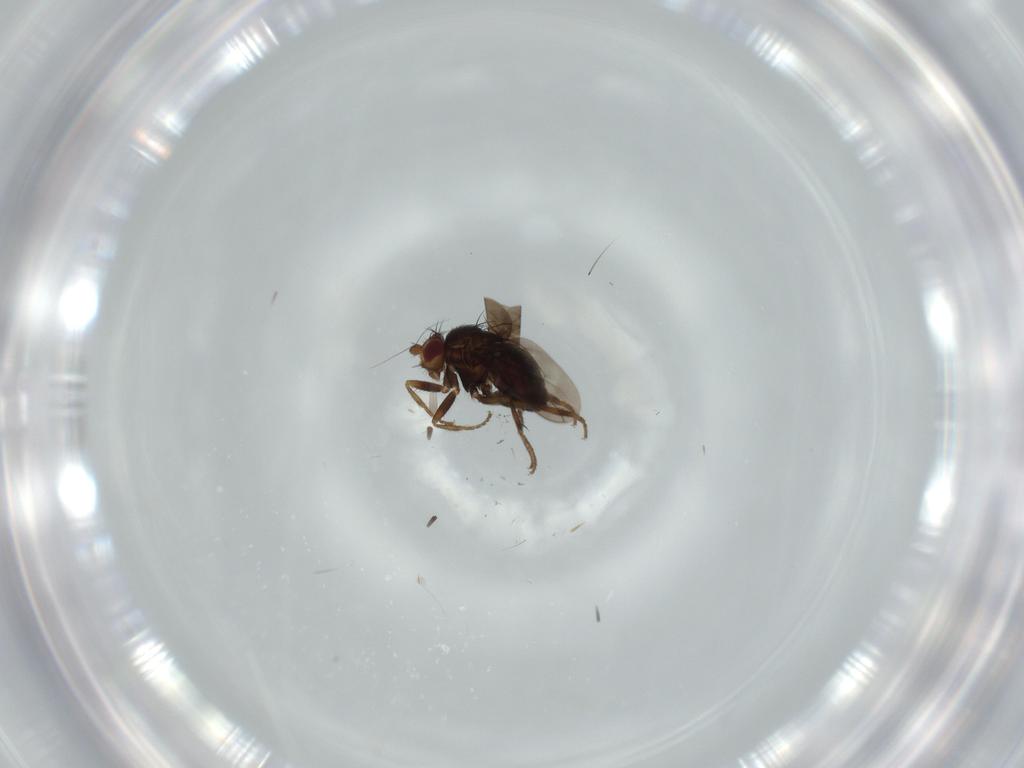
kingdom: Animalia
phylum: Arthropoda
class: Insecta
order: Diptera
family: Sphaeroceridae
